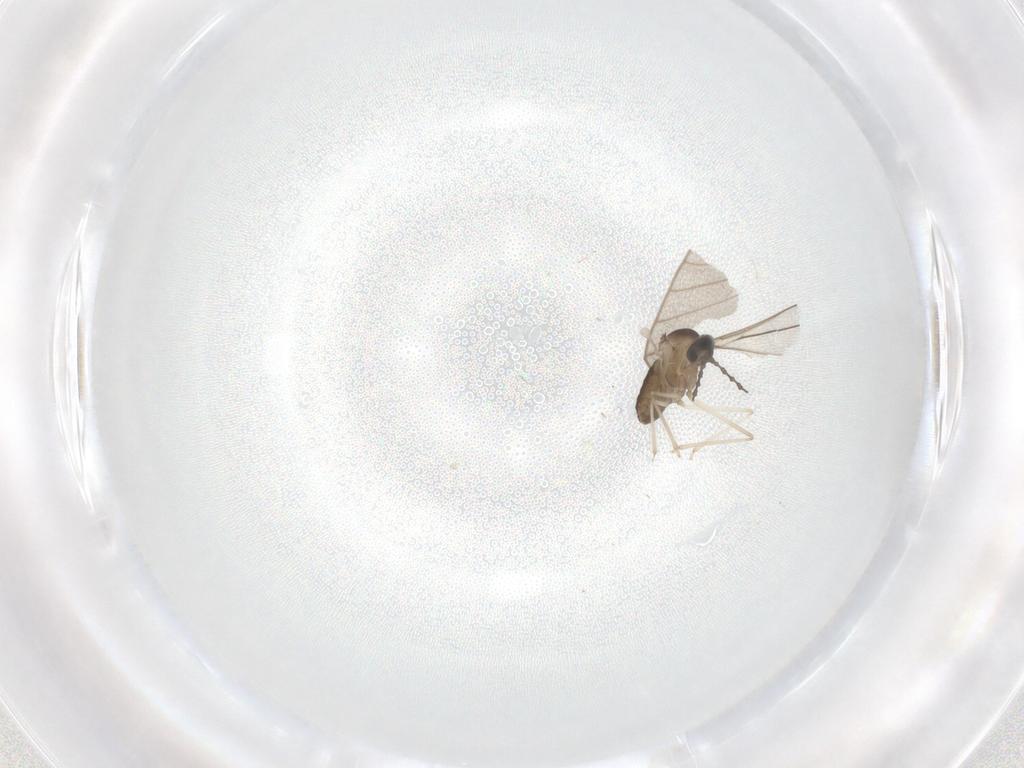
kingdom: Animalia
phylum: Arthropoda
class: Insecta
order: Diptera
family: Cecidomyiidae
